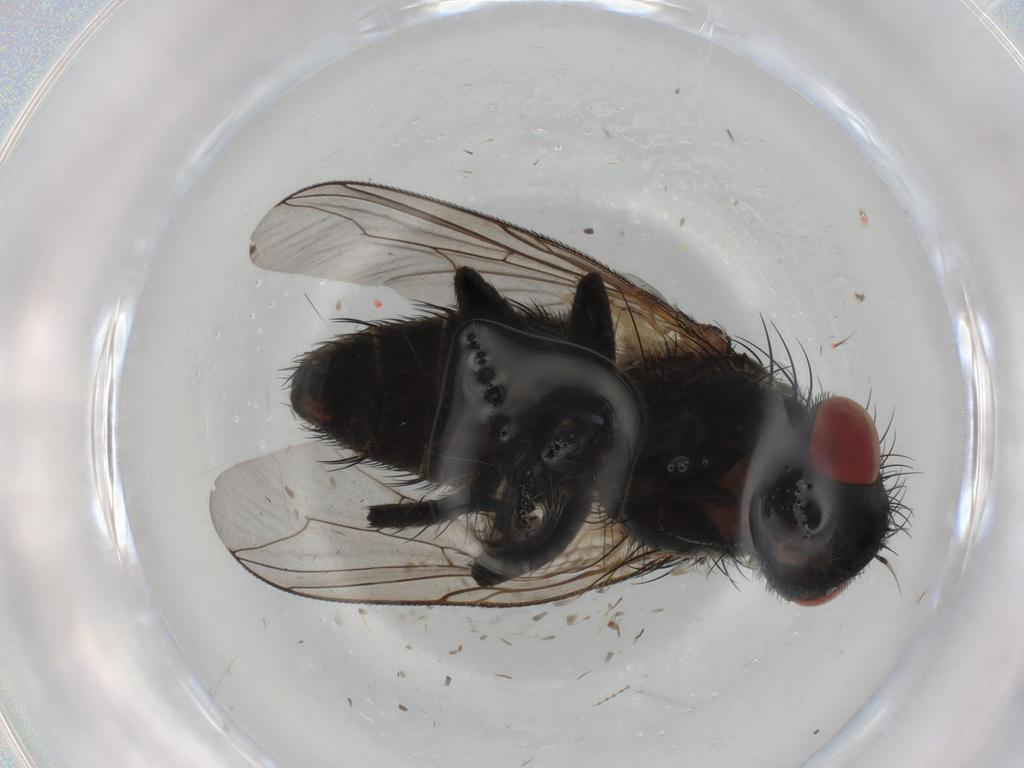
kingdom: Animalia
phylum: Arthropoda
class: Insecta
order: Diptera
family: Sarcophagidae
